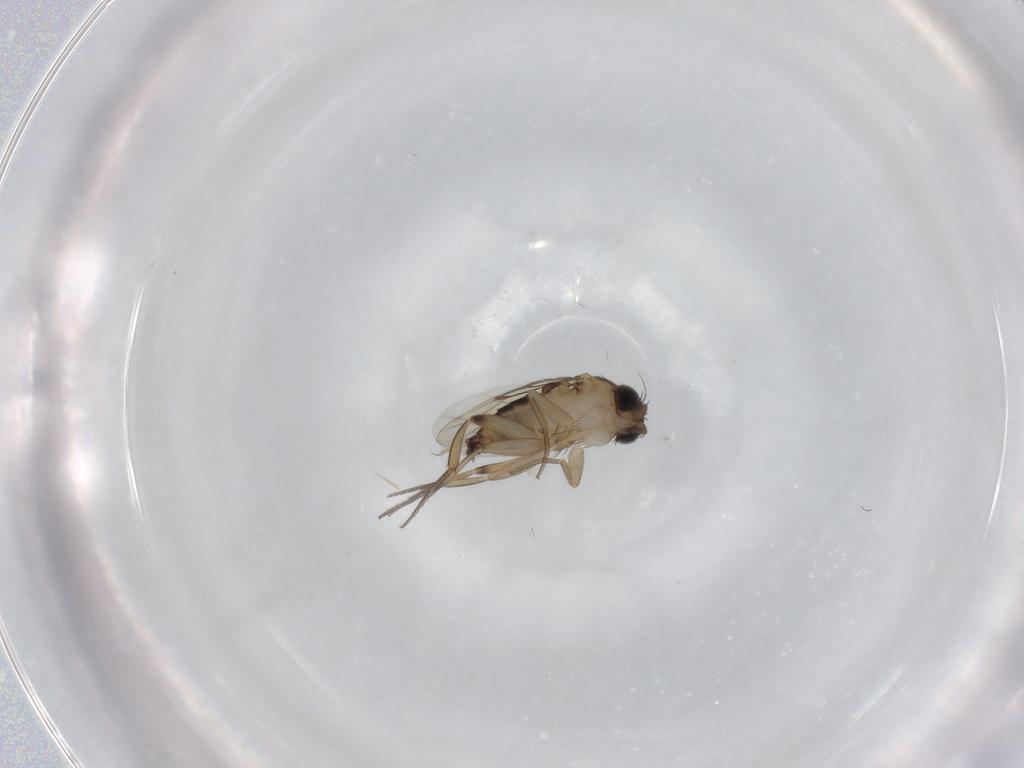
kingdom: Animalia
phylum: Arthropoda
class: Insecta
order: Diptera
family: Phoridae
